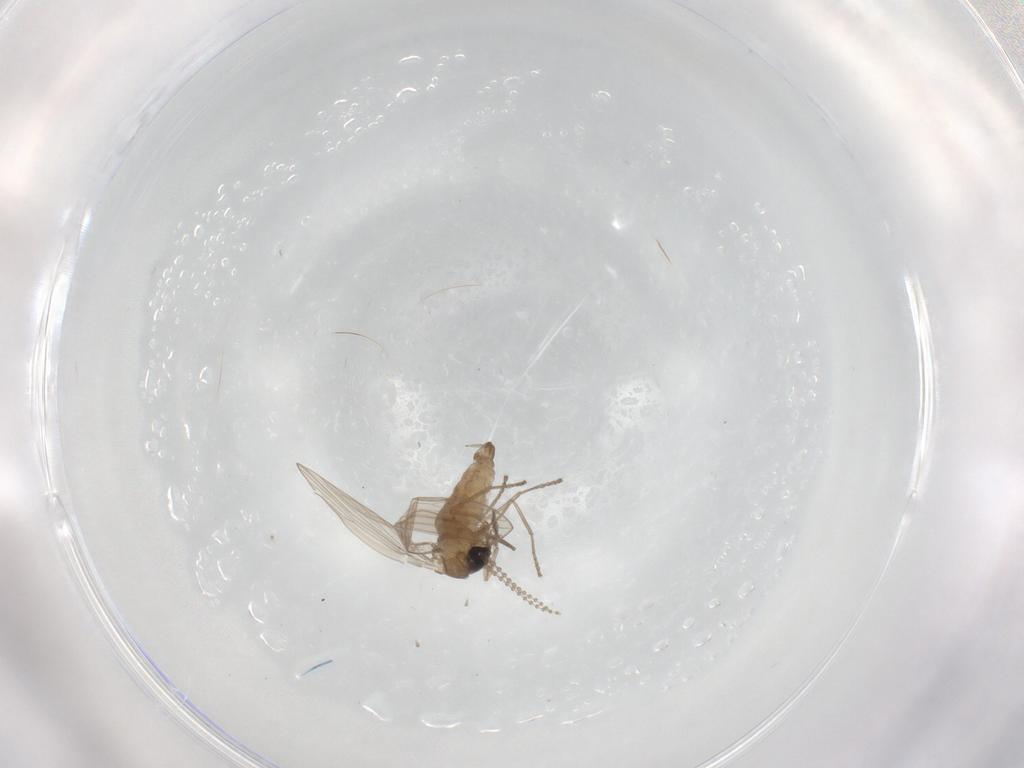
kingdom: Animalia
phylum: Arthropoda
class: Insecta
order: Diptera
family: Psychodidae
